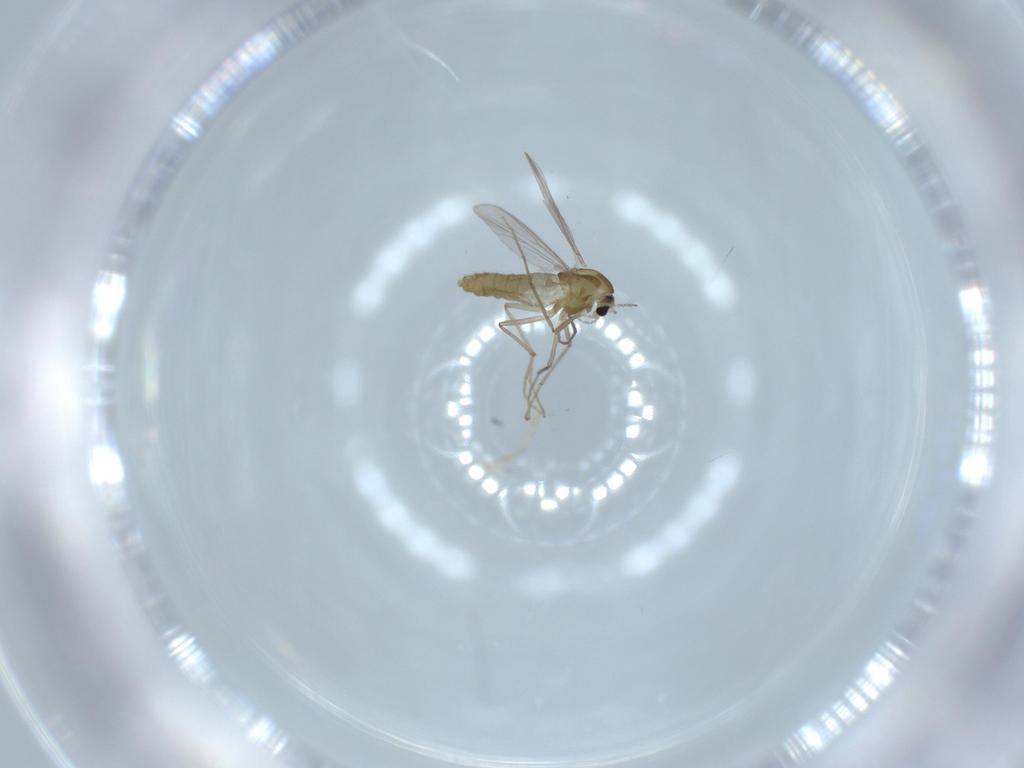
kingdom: Animalia
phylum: Arthropoda
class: Insecta
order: Diptera
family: Chironomidae
